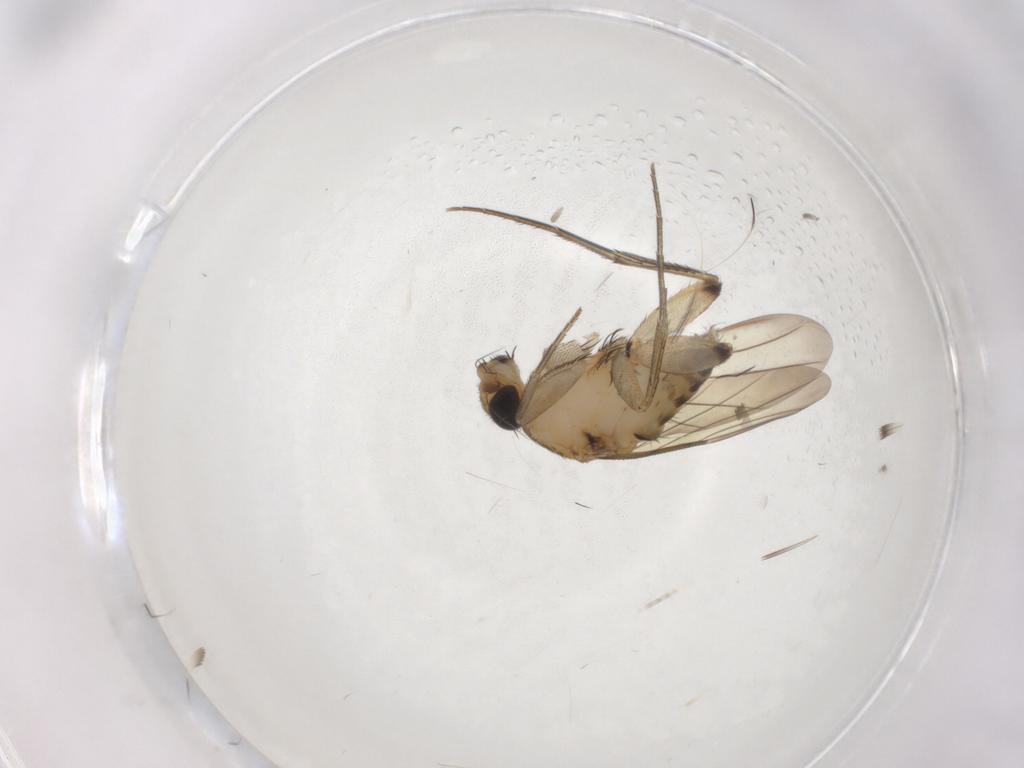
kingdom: Animalia
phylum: Arthropoda
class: Insecta
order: Diptera
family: Phoridae
